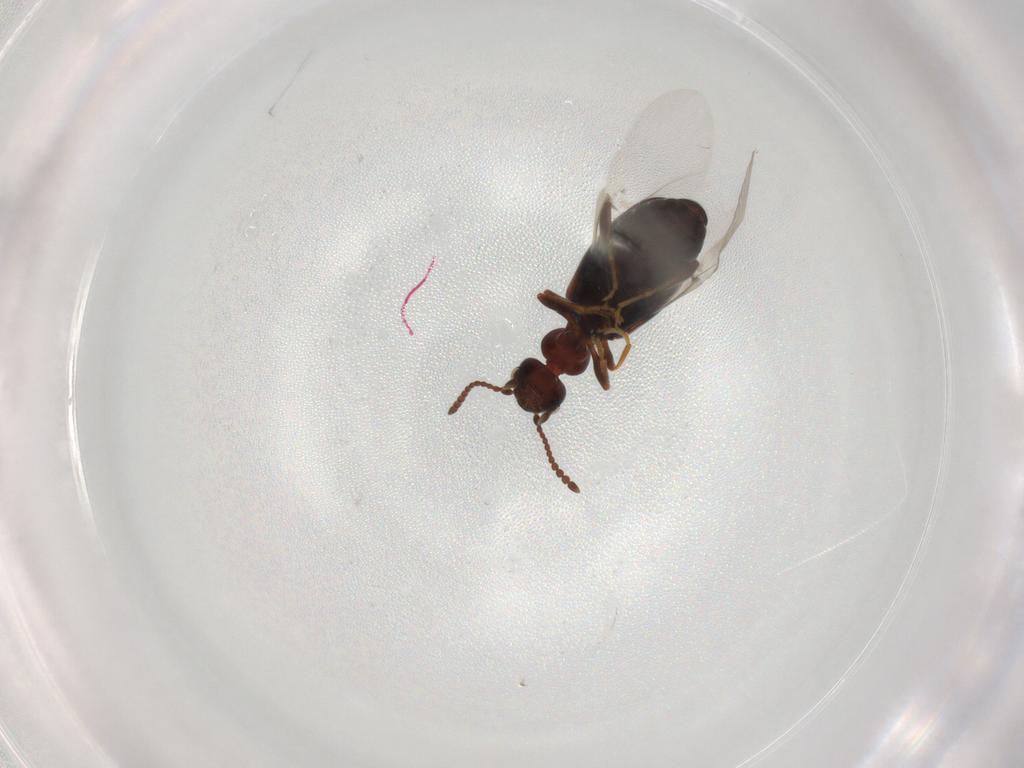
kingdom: Animalia
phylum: Arthropoda
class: Insecta
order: Coleoptera
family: Anthicidae
